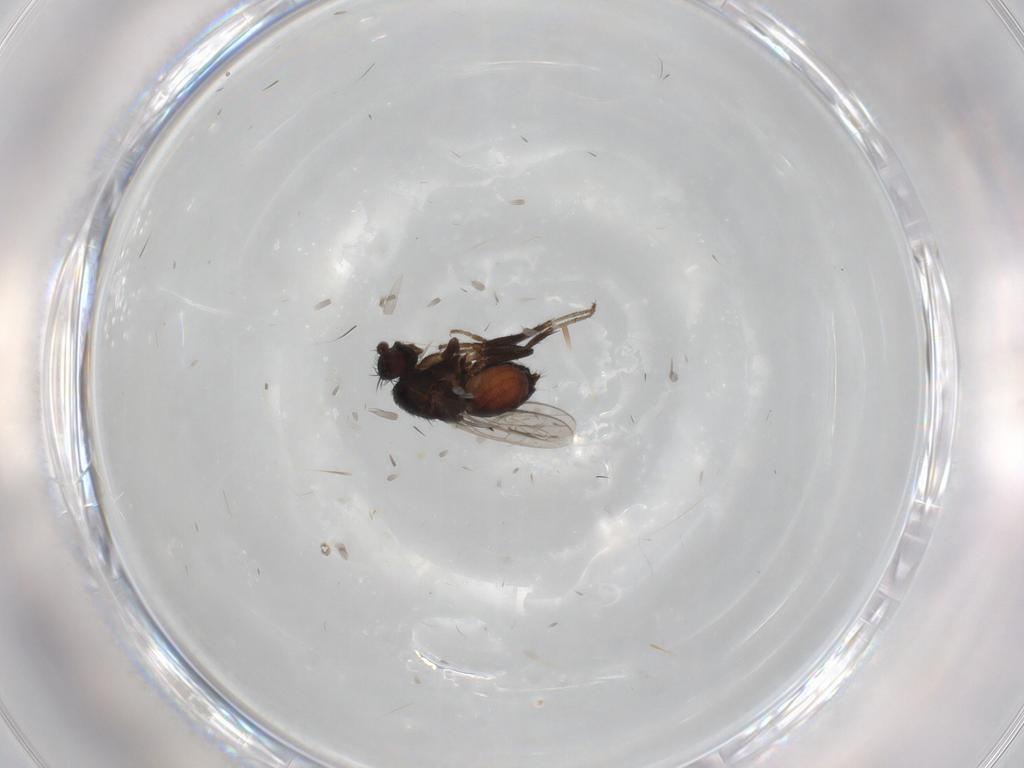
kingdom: Animalia
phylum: Arthropoda
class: Insecta
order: Diptera
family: Sphaeroceridae
